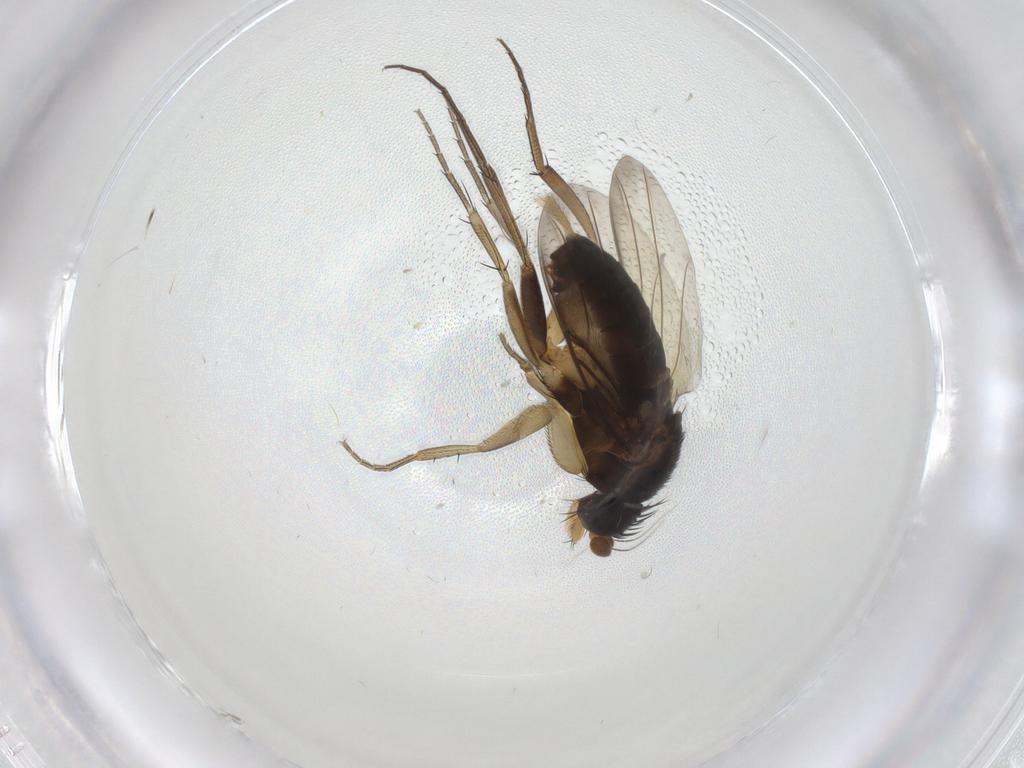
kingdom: Animalia
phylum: Arthropoda
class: Insecta
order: Diptera
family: Phoridae
